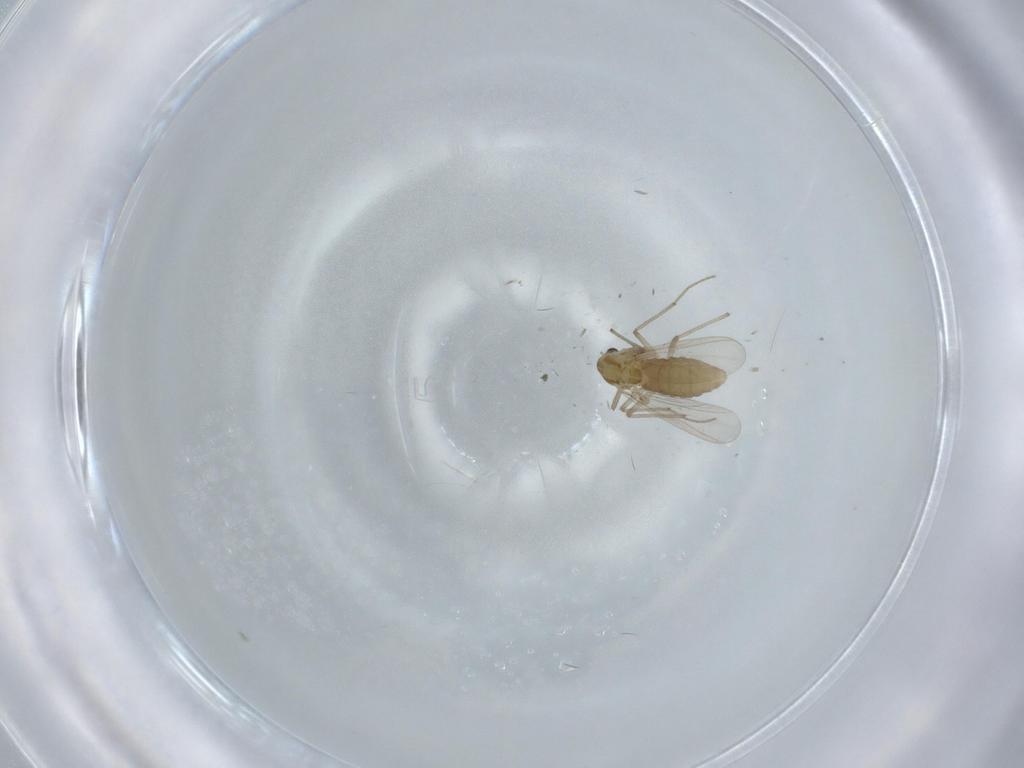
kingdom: Animalia
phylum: Arthropoda
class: Insecta
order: Diptera
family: Chironomidae
